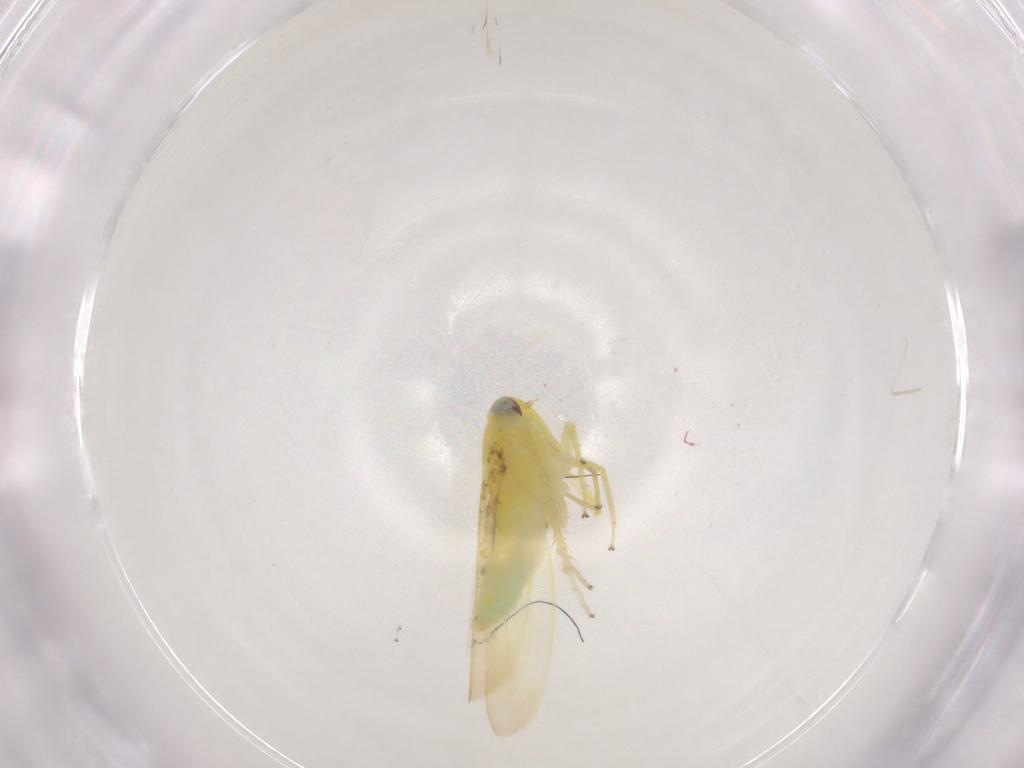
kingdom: Animalia
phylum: Arthropoda
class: Insecta
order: Hemiptera
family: Cicadellidae
